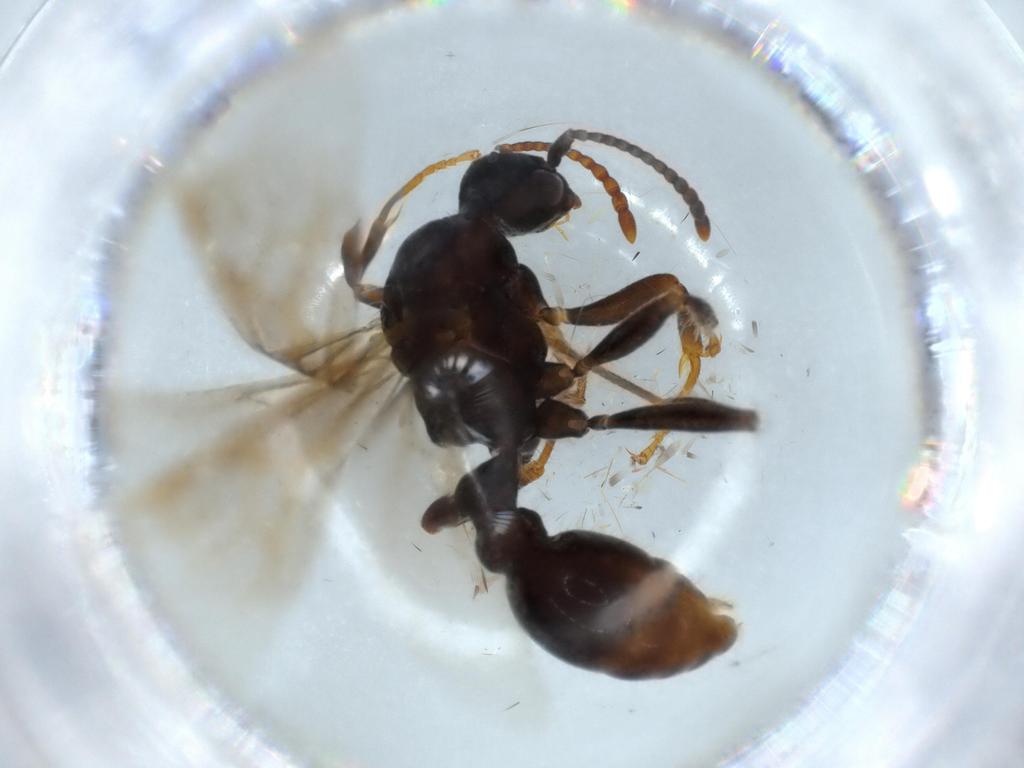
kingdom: Animalia
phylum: Arthropoda
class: Insecta
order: Hymenoptera
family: Formicidae
